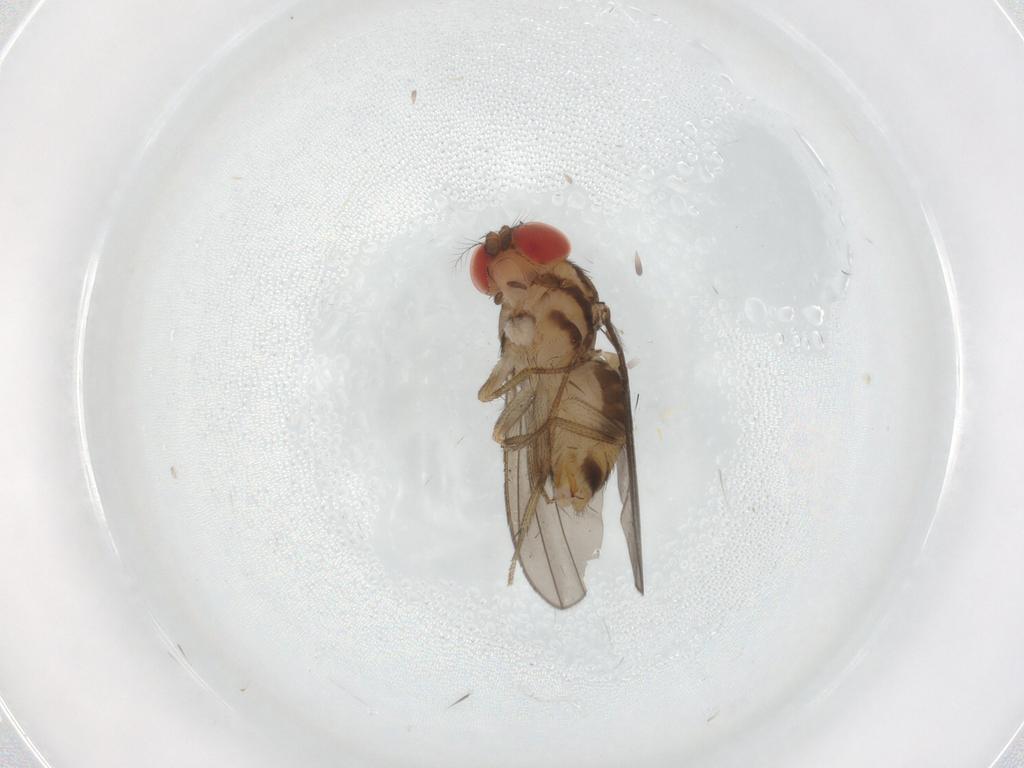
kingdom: Animalia
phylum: Arthropoda
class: Insecta
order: Diptera
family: Drosophilidae
